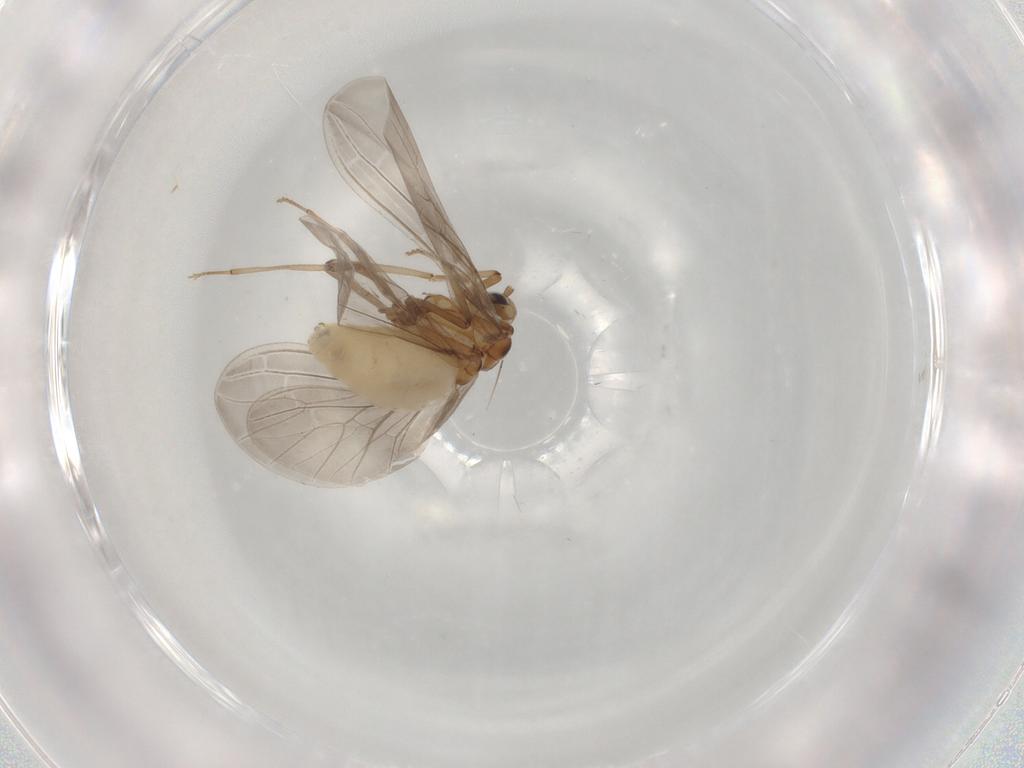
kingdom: Animalia
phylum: Arthropoda
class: Insecta
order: Neuroptera
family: Coniopterygidae
